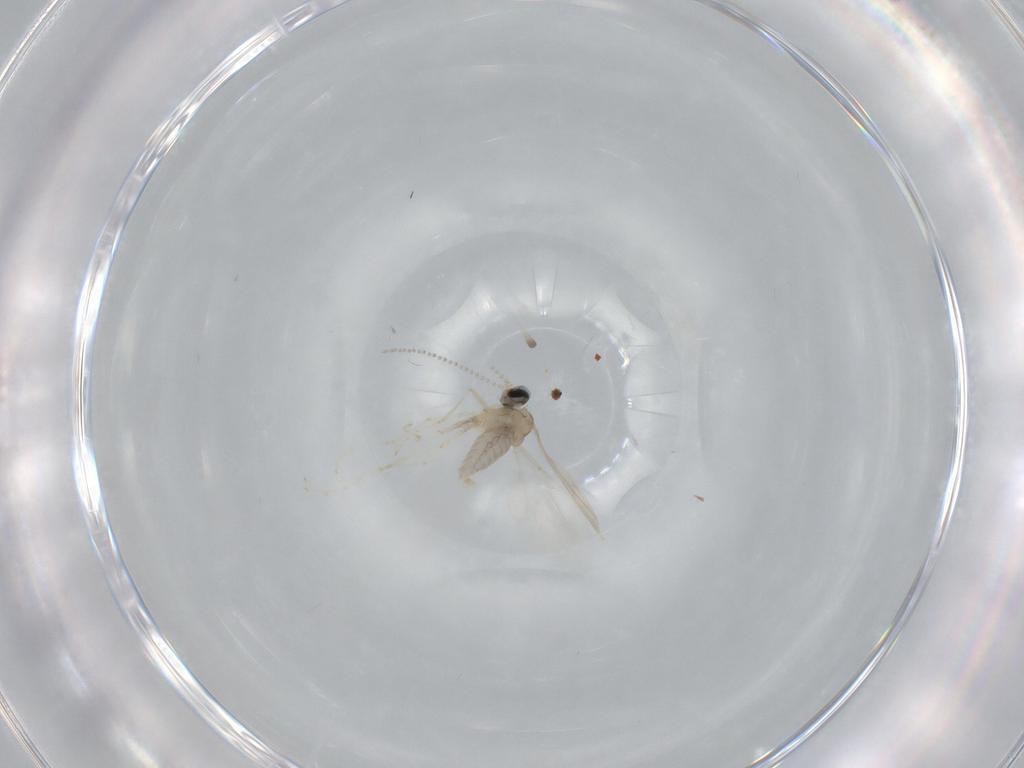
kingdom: Animalia
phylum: Arthropoda
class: Insecta
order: Diptera
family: Cecidomyiidae
